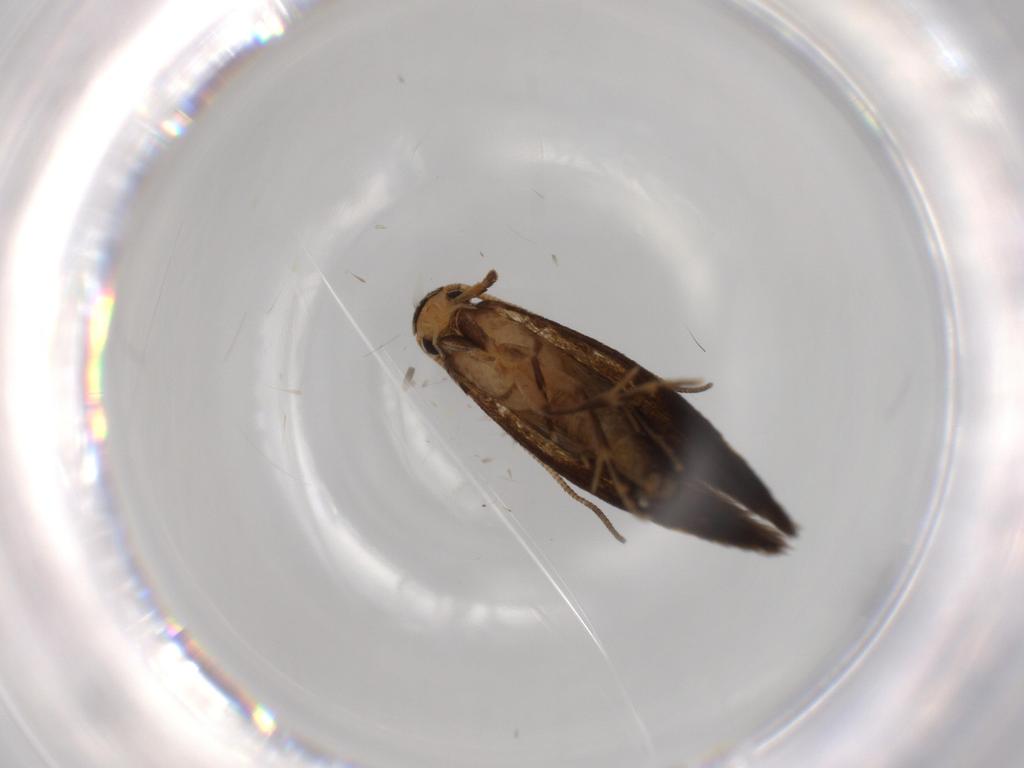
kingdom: Animalia
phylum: Arthropoda
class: Insecta
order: Lepidoptera
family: Tineidae
